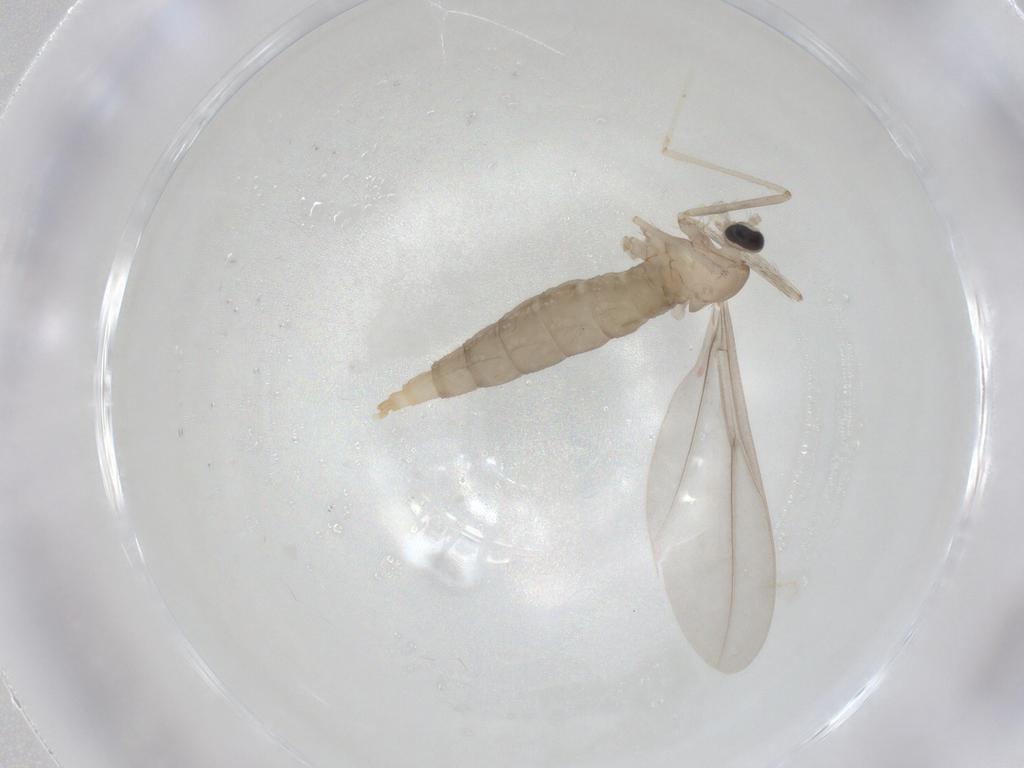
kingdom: Animalia
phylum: Arthropoda
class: Insecta
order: Diptera
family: Cecidomyiidae
